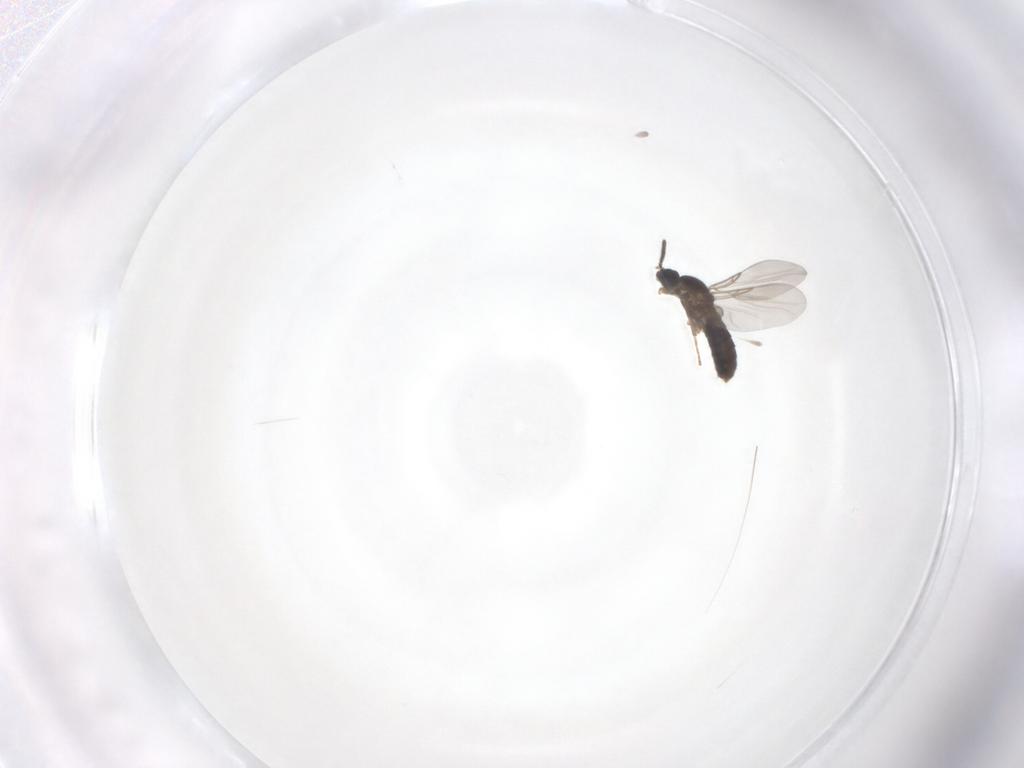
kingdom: Animalia
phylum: Arthropoda
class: Insecta
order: Diptera
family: Scatopsidae
